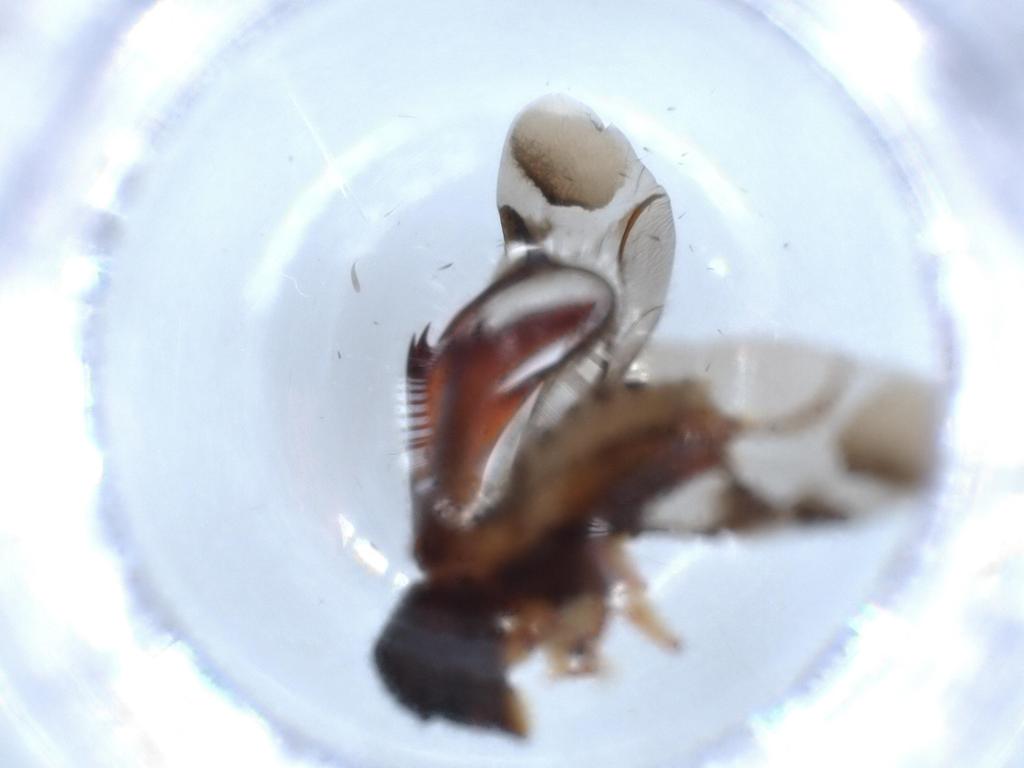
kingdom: Animalia
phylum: Arthropoda
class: Insecta
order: Coleoptera
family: Bostrichidae
